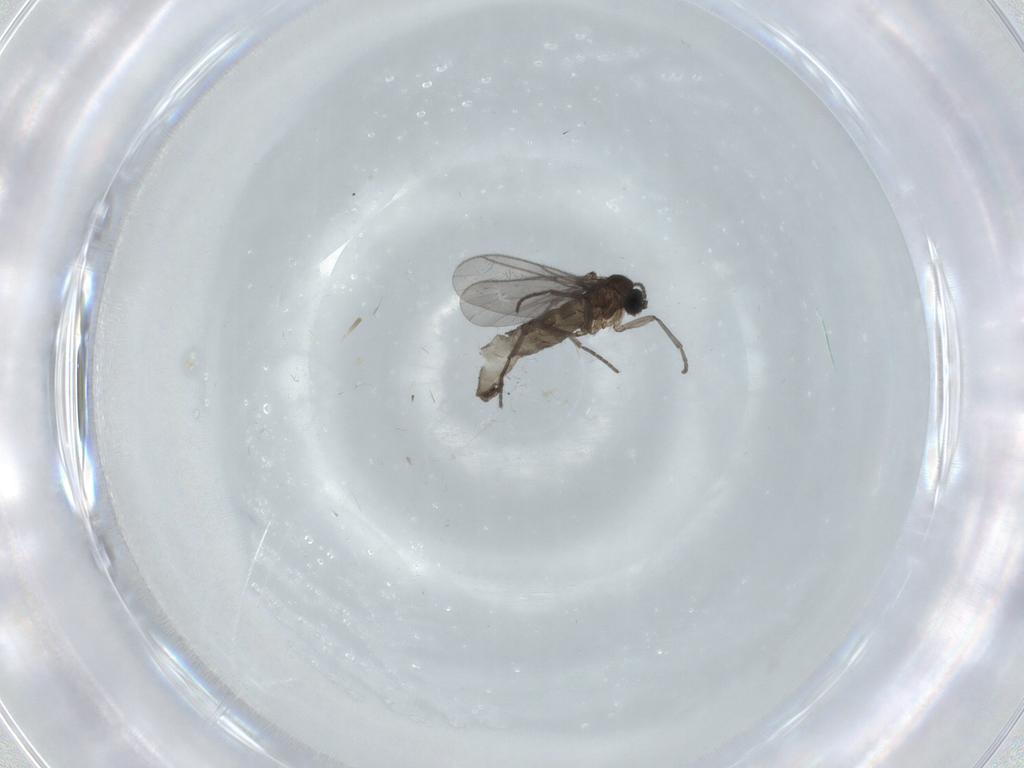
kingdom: Animalia
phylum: Arthropoda
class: Insecta
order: Diptera
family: Sciaridae
